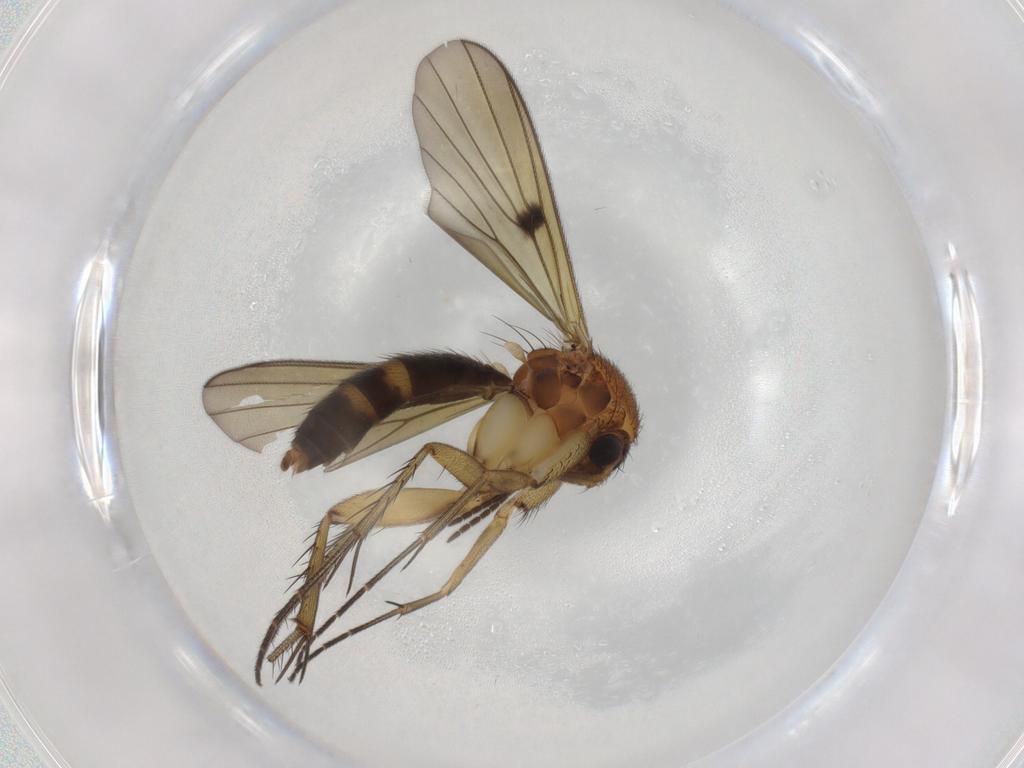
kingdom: Animalia
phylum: Arthropoda
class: Insecta
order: Diptera
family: Mycetophilidae
